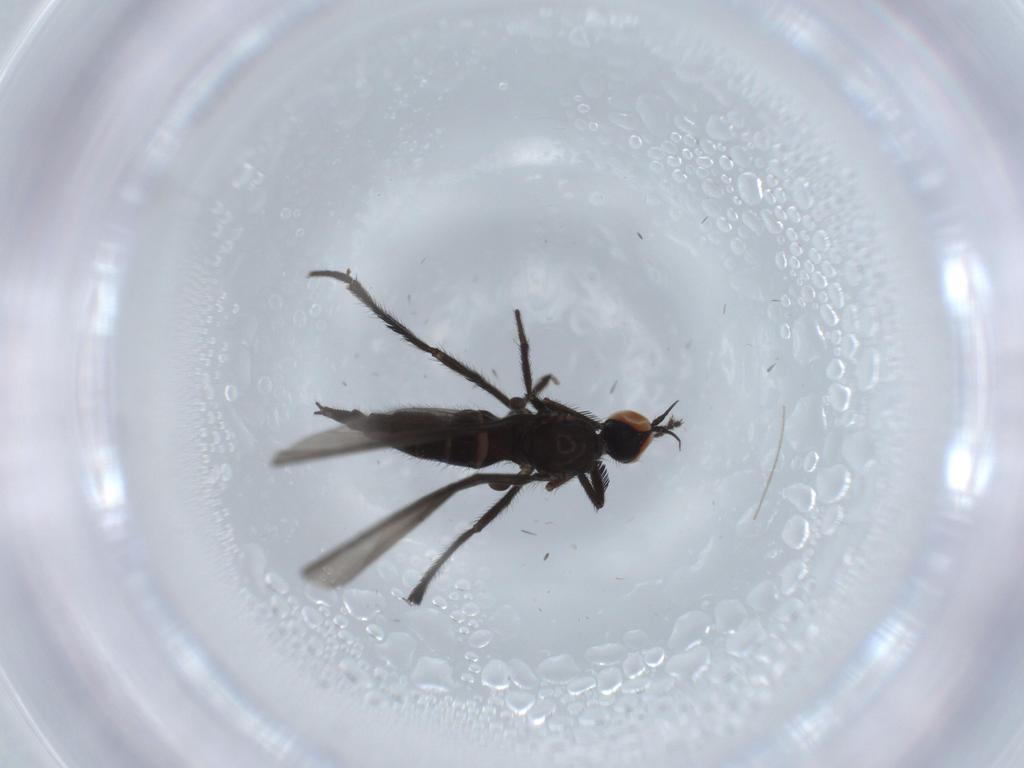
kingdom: Animalia
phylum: Arthropoda
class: Insecta
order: Diptera
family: Empididae
